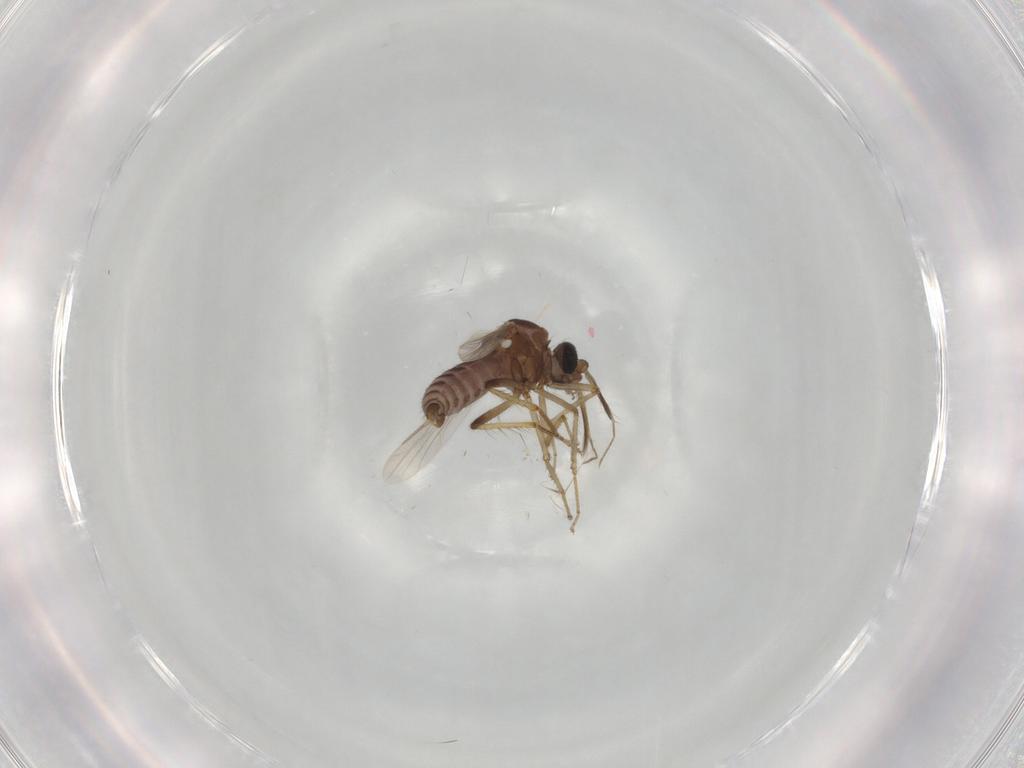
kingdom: Animalia
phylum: Arthropoda
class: Insecta
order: Diptera
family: Ceratopogonidae
